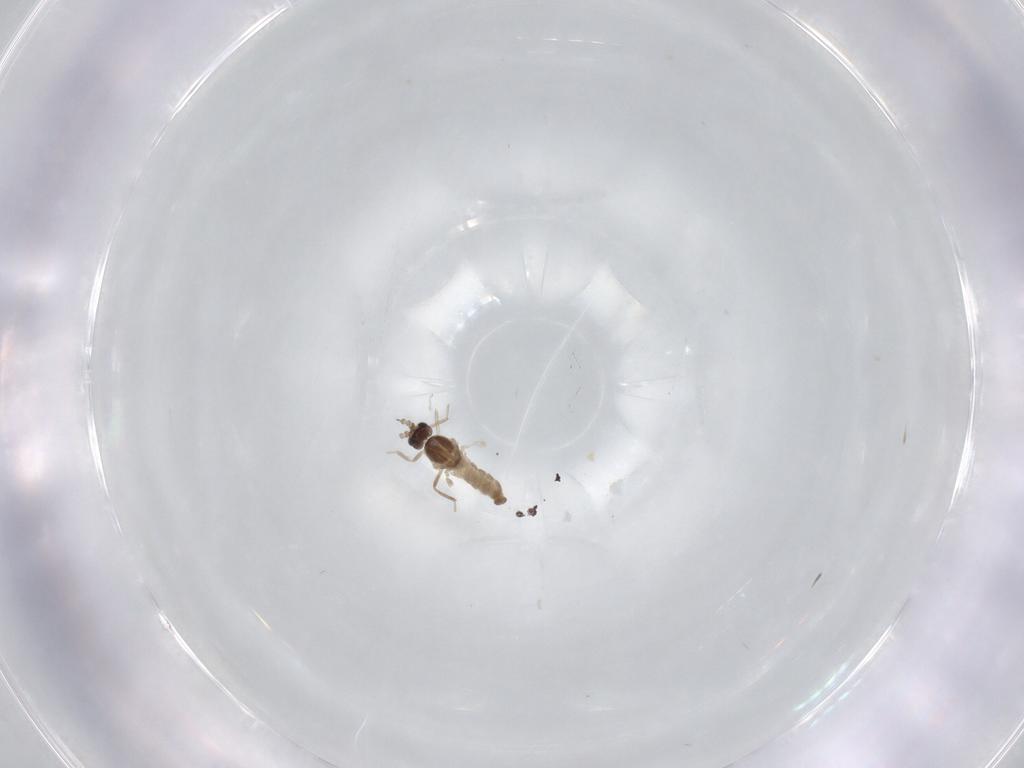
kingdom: Animalia
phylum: Arthropoda
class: Insecta
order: Diptera
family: Cecidomyiidae
